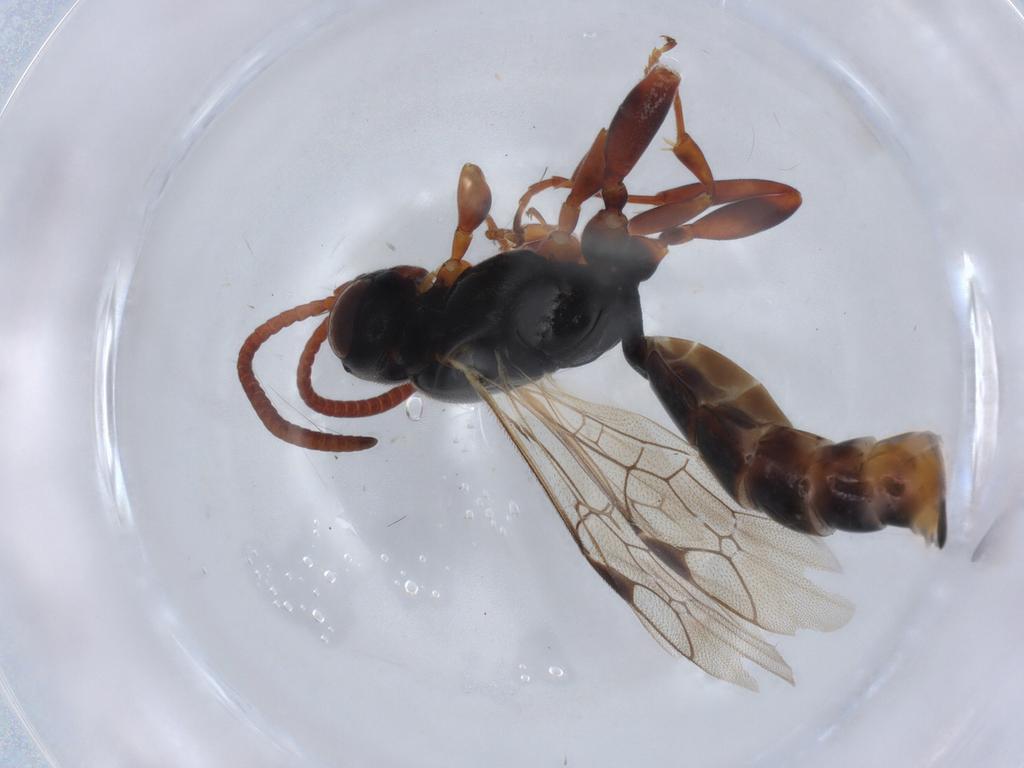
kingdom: Animalia
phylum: Arthropoda
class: Insecta
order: Hymenoptera
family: Ichneumonidae
